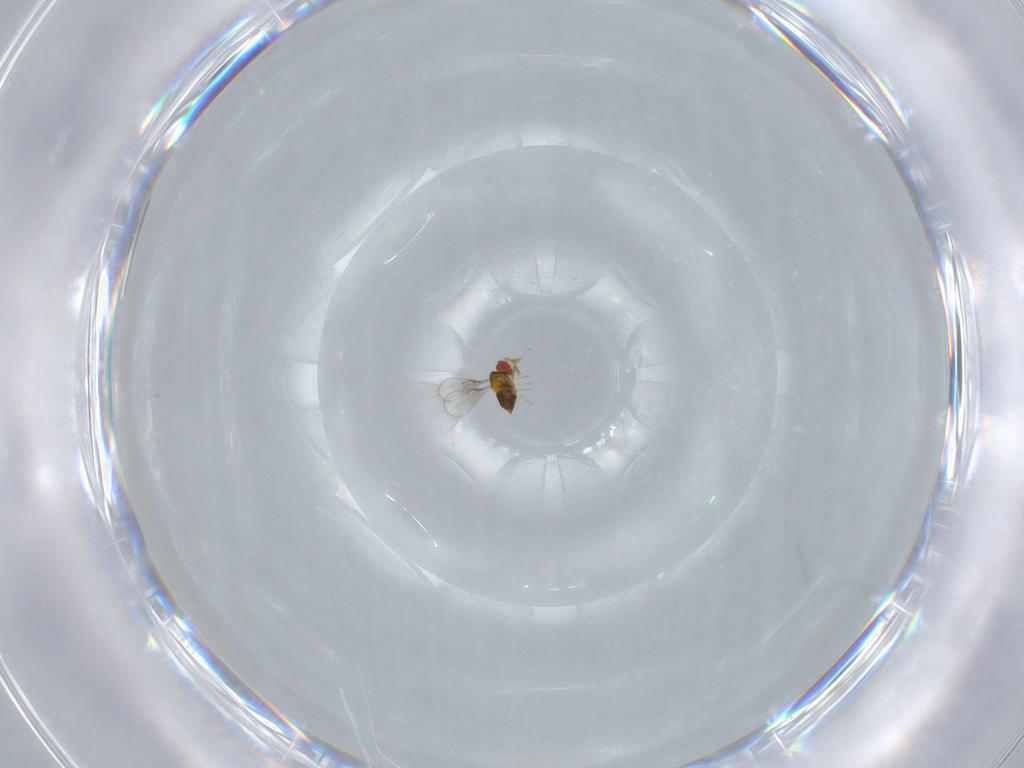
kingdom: Animalia
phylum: Arthropoda
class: Insecta
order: Hymenoptera
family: Trichogrammatidae
